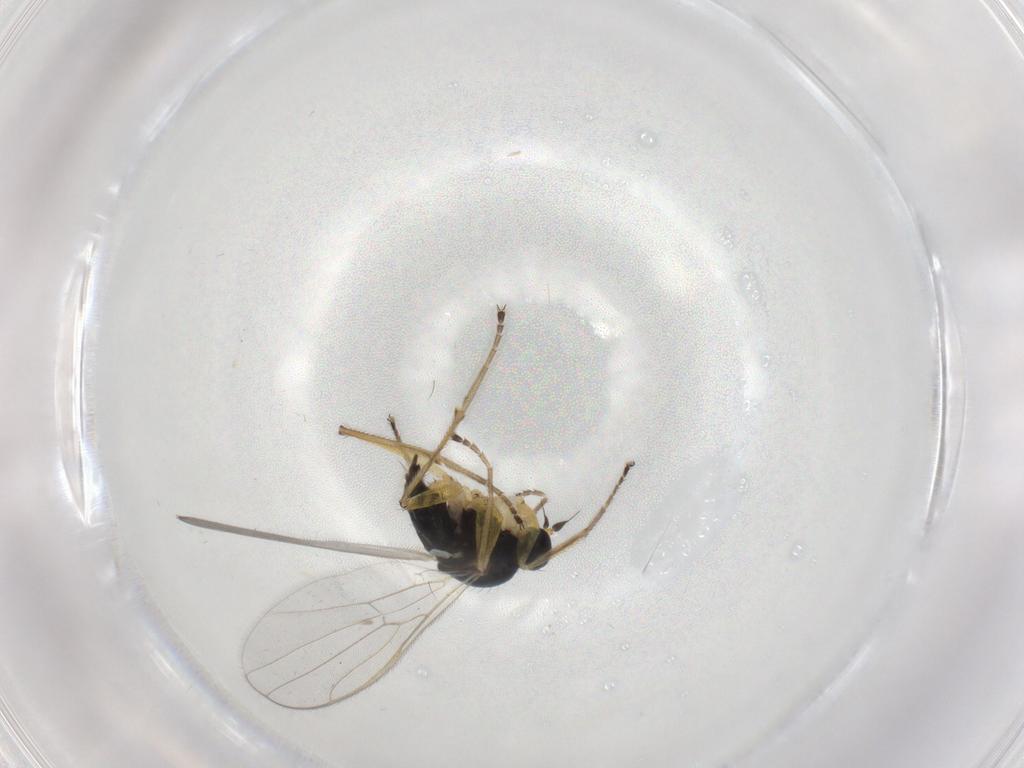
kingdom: Animalia
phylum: Arthropoda
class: Insecta
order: Diptera
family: Hybotidae
